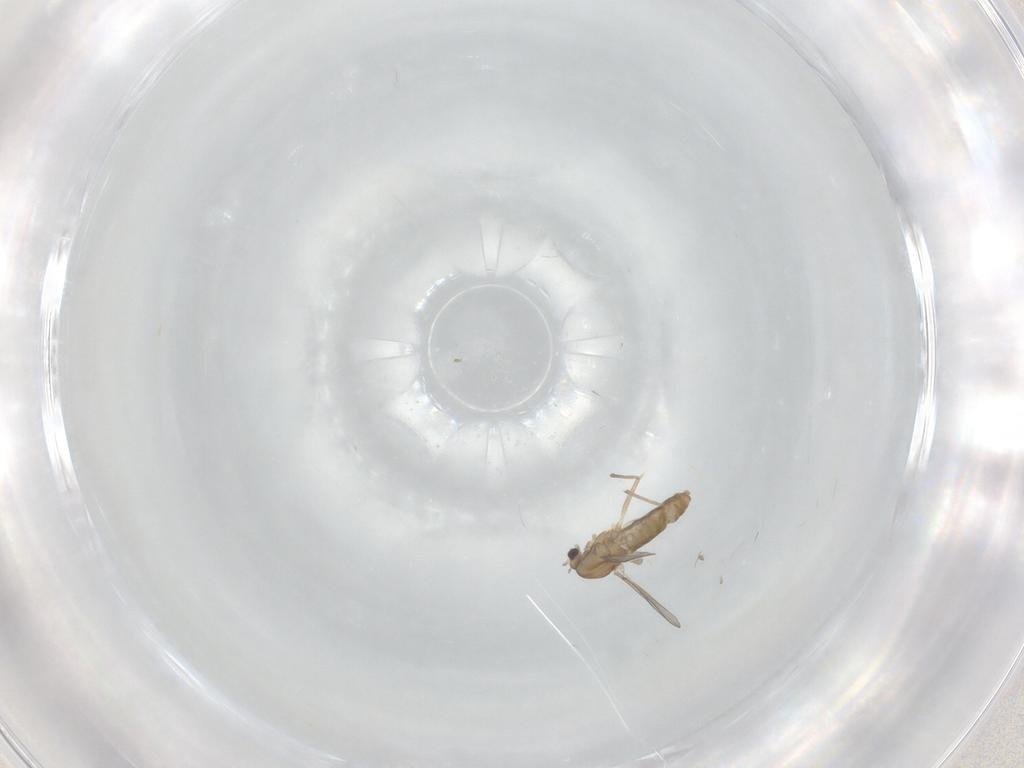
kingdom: Animalia
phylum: Arthropoda
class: Insecta
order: Diptera
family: Chironomidae
